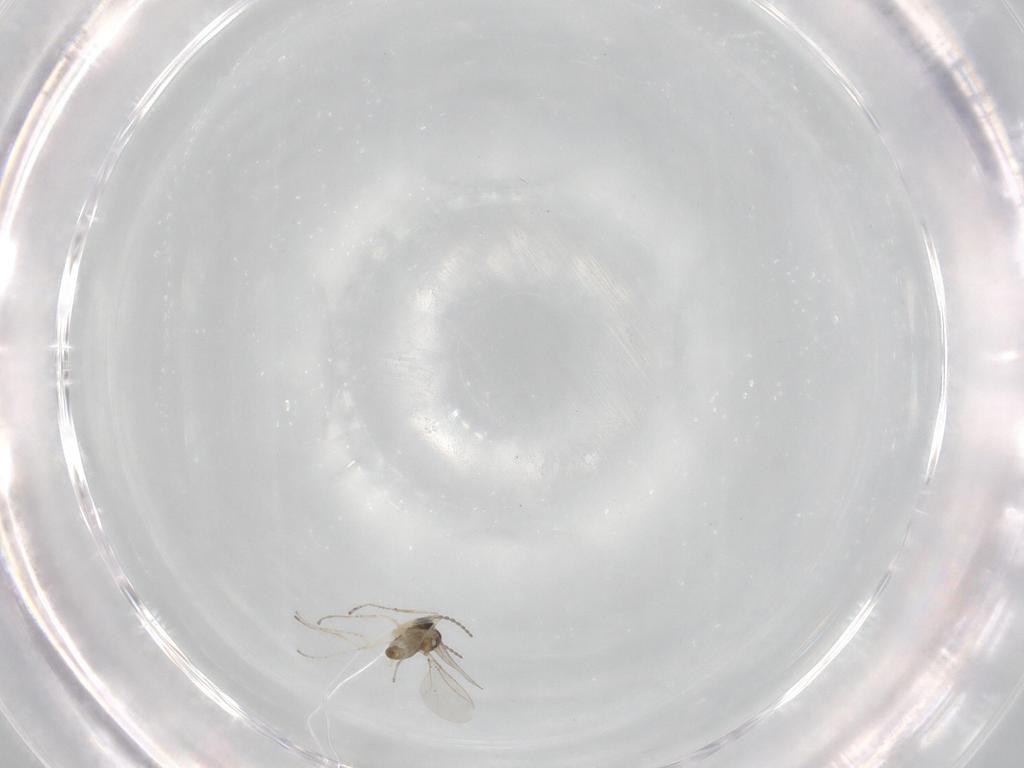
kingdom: Animalia
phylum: Arthropoda
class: Insecta
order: Diptera
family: Cecidomyiidae
